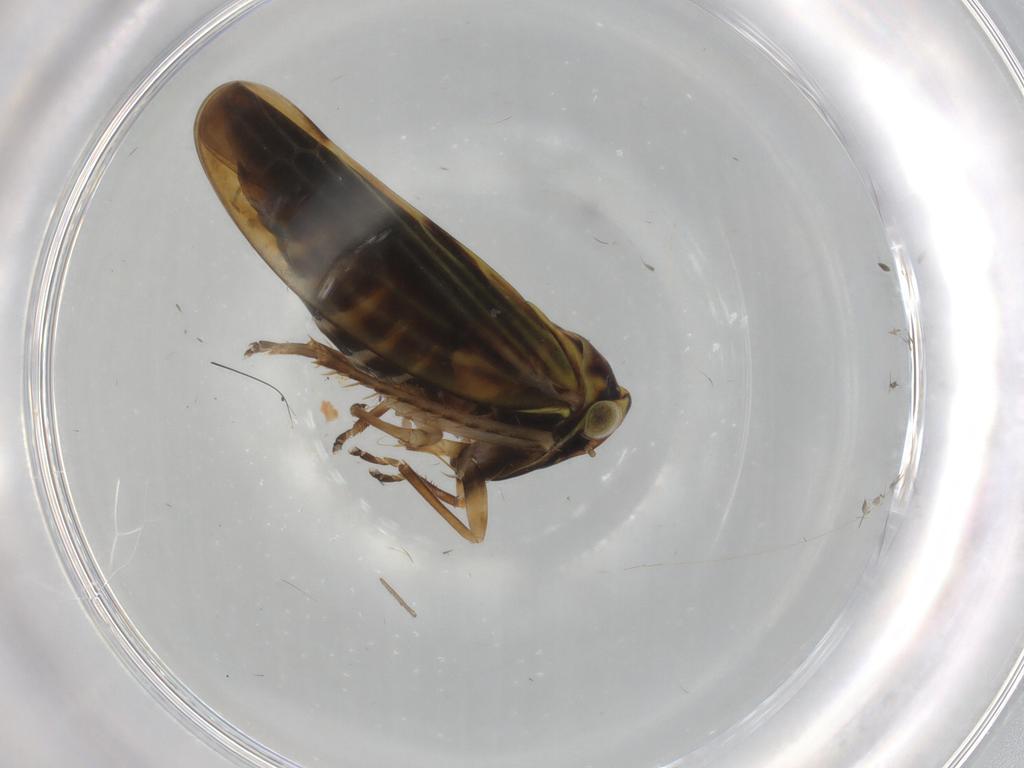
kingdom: Animalia
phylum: Arthropoda
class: Insecta
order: Hemiptera
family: Cicadellidae
